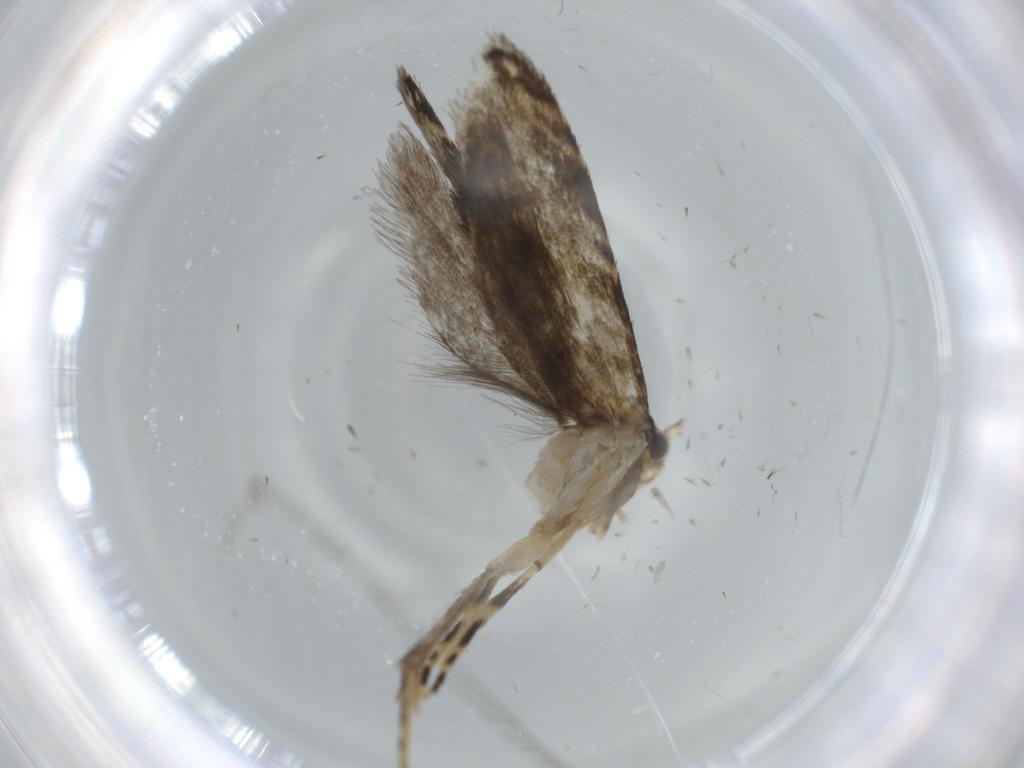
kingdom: Animalia
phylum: Arthropoda
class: Insecta
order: Lepidoptera
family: Tineidae
